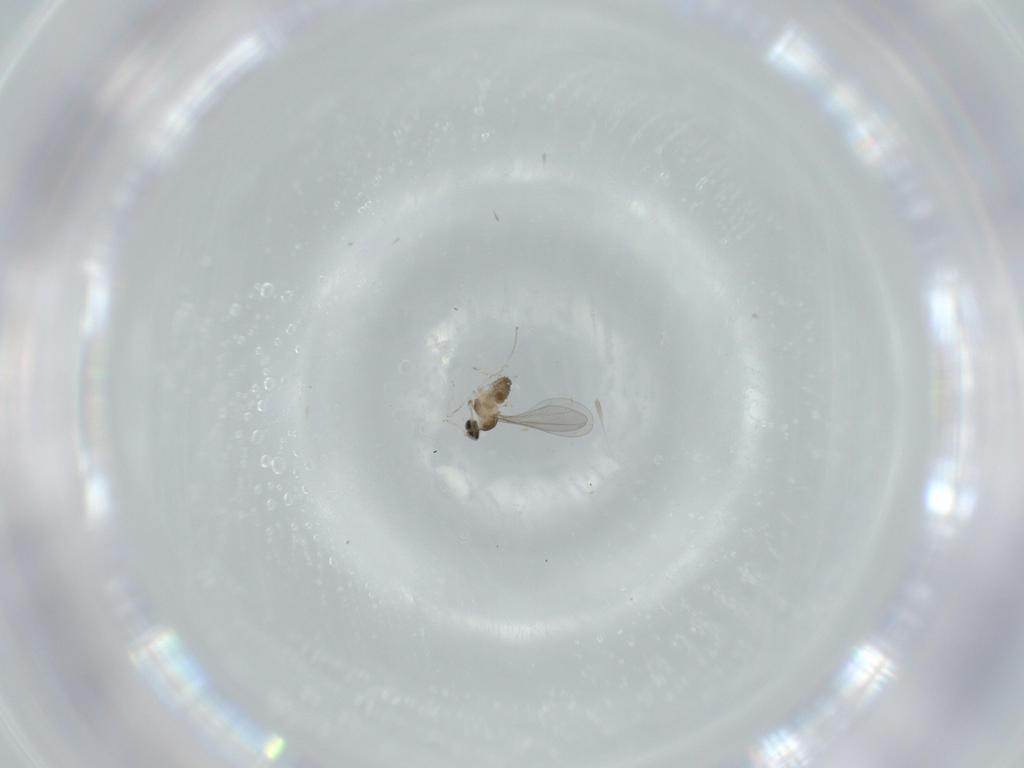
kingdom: Animalia
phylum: Arthropoda
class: Insecta
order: Diptera
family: Cecidomyiidae
